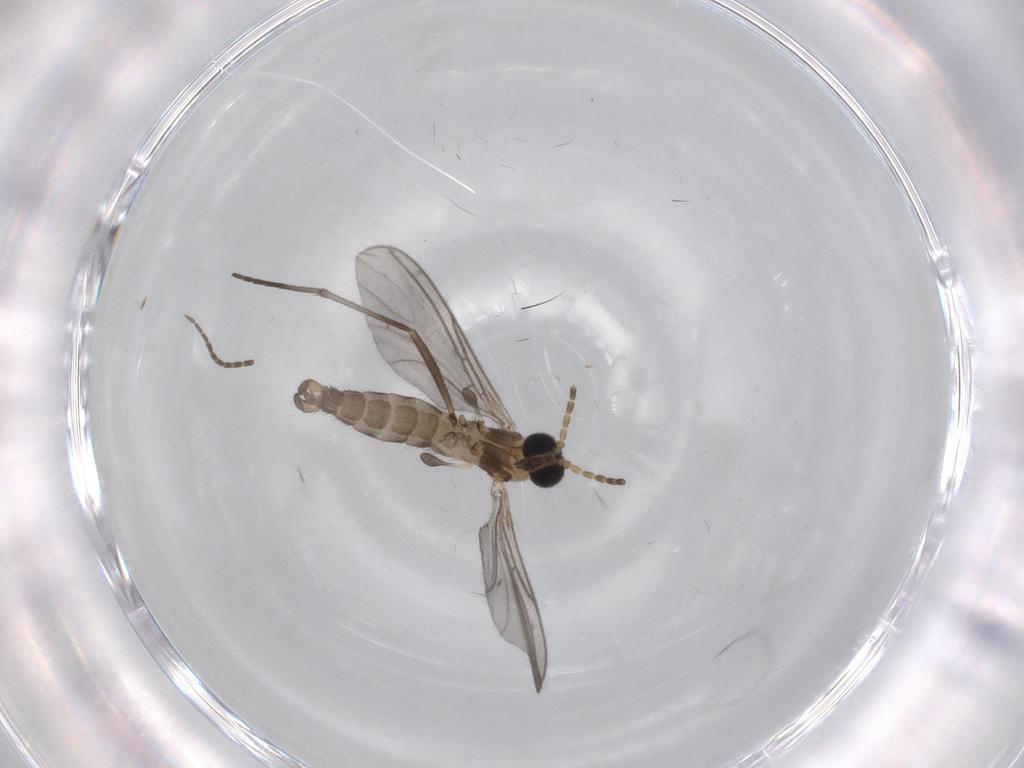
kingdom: Animalia
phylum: Arthropoda
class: Insecta
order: Diptera
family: Sciaridae
